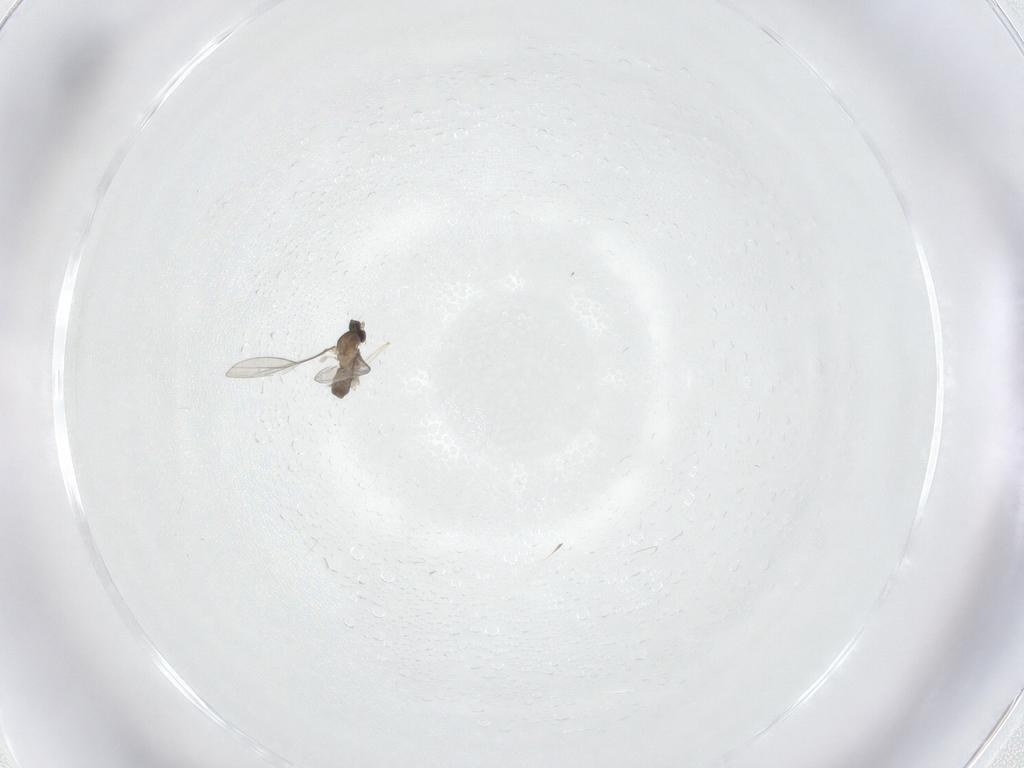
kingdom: Animalia
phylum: Arthropoda
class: Insecta
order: Diptera
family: Cecidomyiidae
